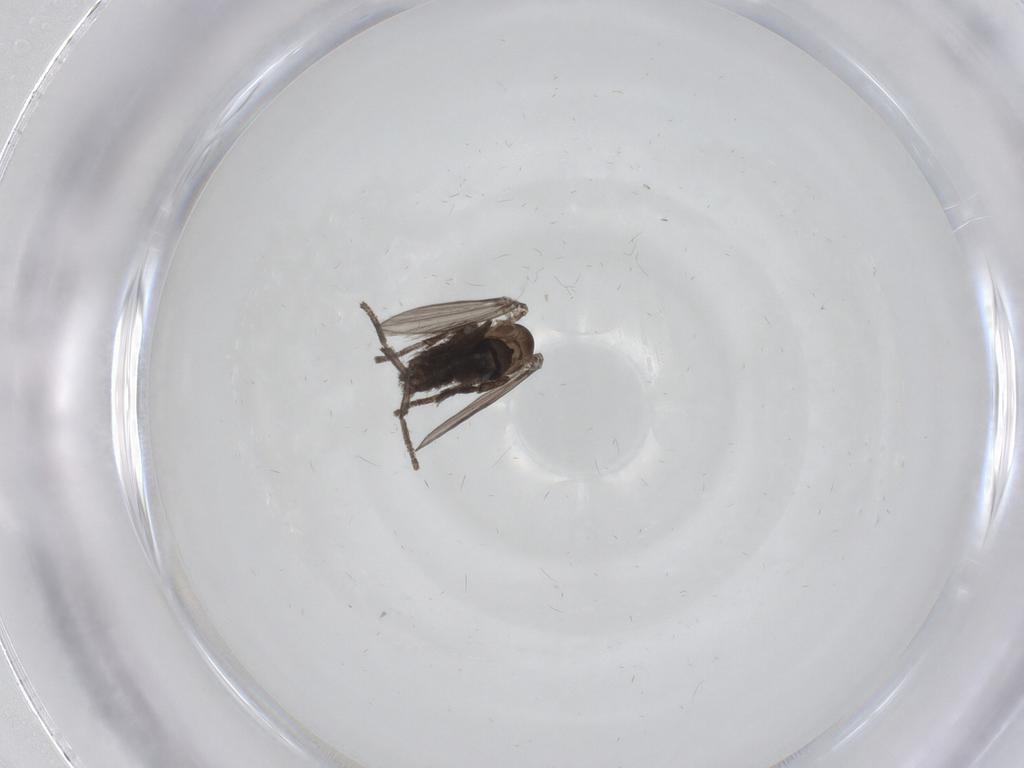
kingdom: Animalia
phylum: Arthropoda
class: Insecta
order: Diptera
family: Psychodidae
